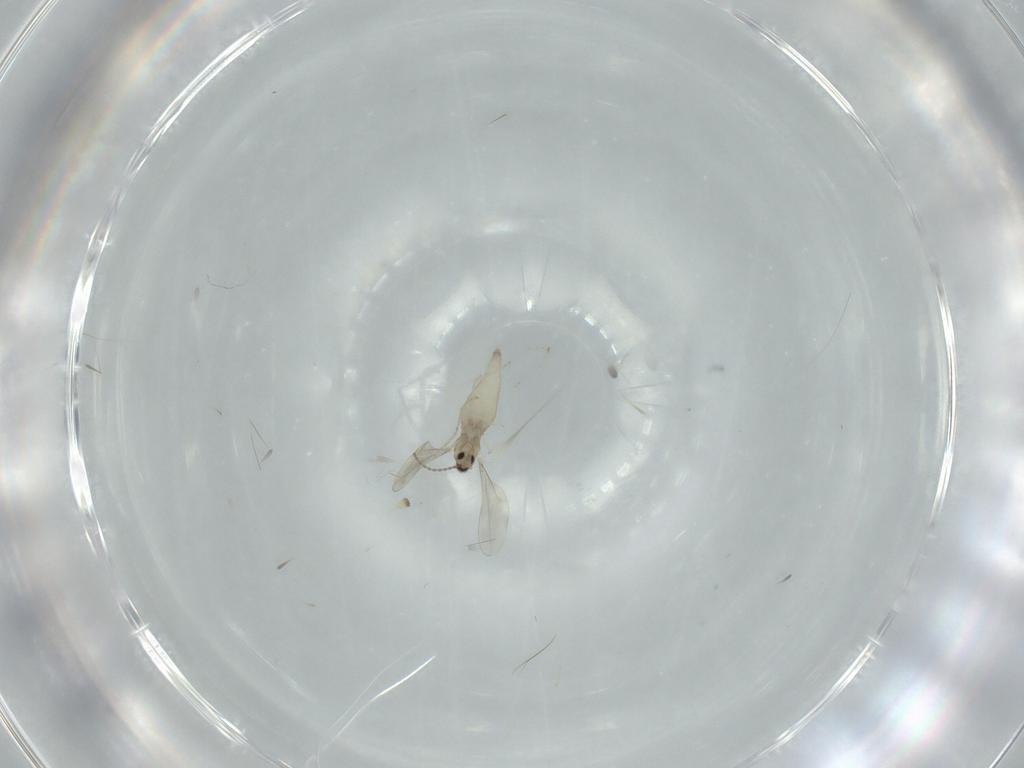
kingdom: Animalia
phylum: Arthropoda
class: Insecta
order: Diptera
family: Cecidomyiidae
